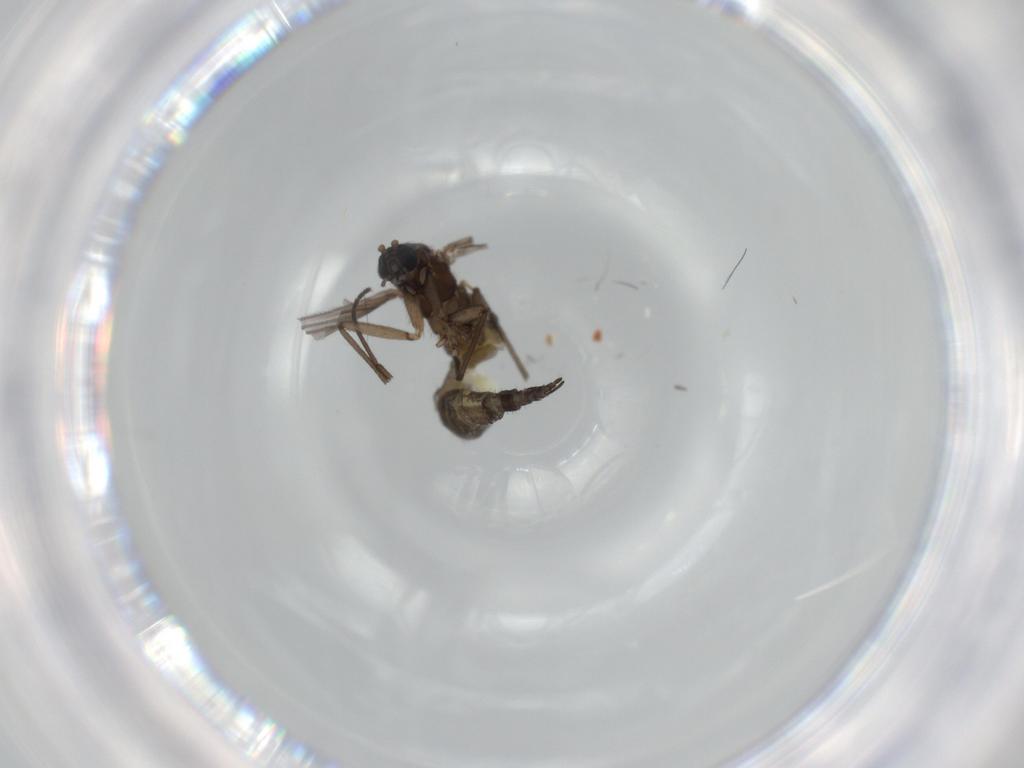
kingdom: Animalia
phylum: Arthropoda
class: Insecta
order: Diptera
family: Sciaridae
